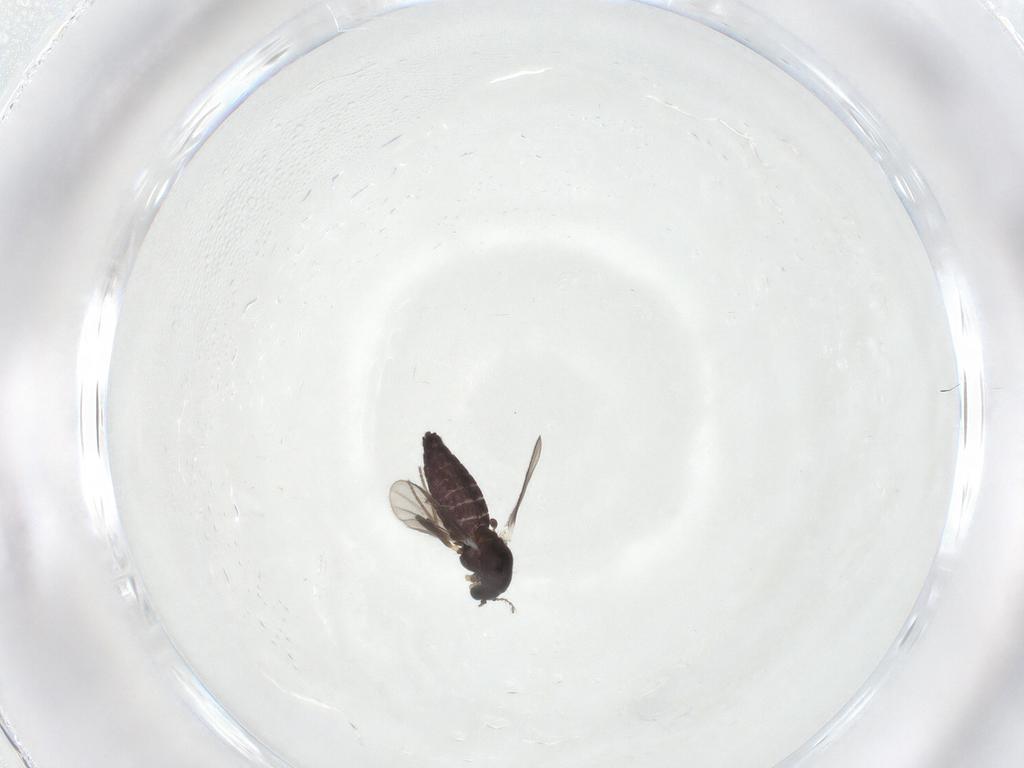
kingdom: Animalia
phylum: Arthropoda
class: Insecta
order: Diptera
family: Chironomidae
